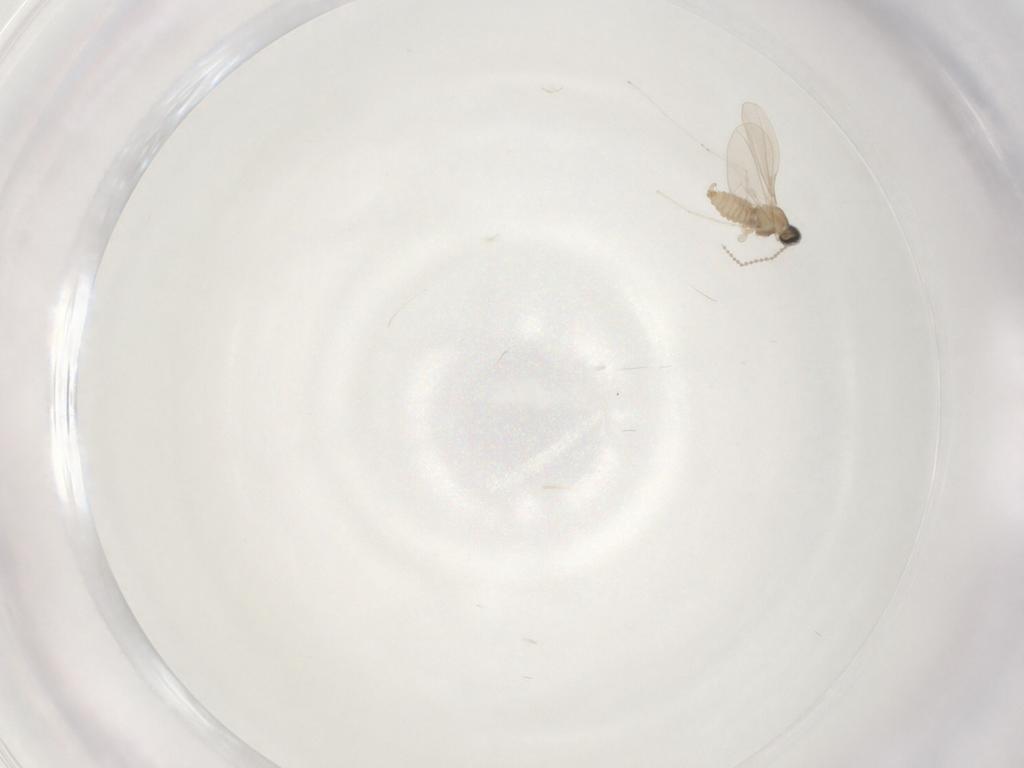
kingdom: Animalia
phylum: Arthropoda
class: Insecta
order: Diptera
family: Cecidomyiidae
